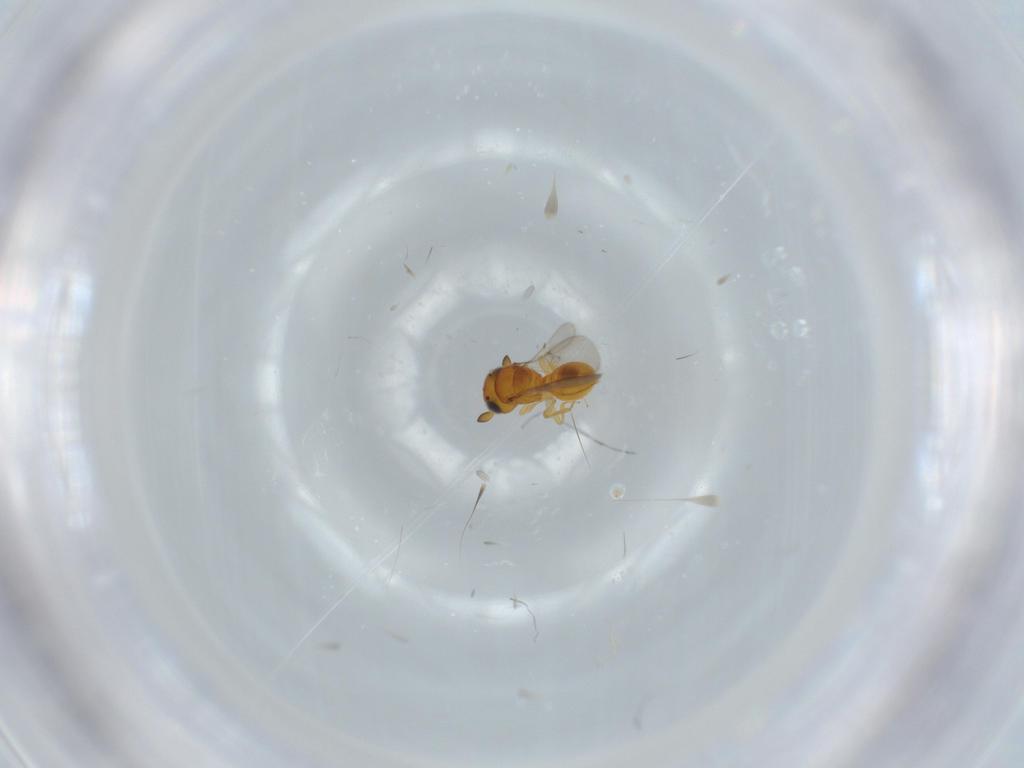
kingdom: Animalia
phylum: Arthropoda
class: Insecta
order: Hymenoptera
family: Scelionidae
